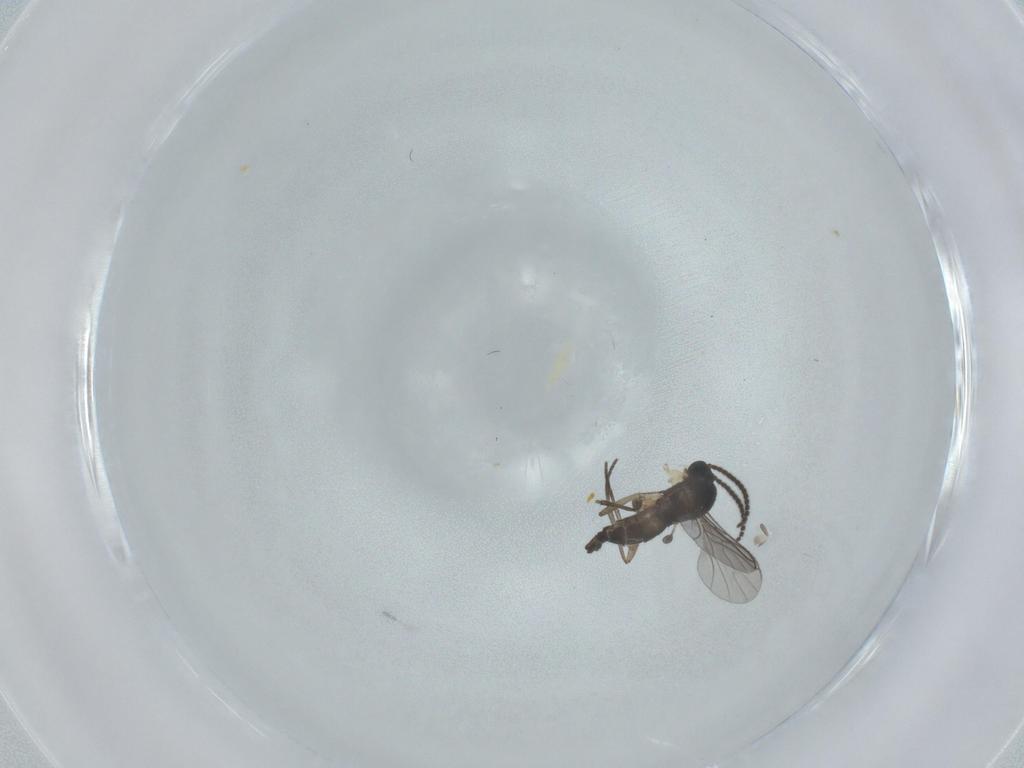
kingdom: Animalia
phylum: Arthropoda
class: Insecta
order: Diptera
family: Sciaridae
